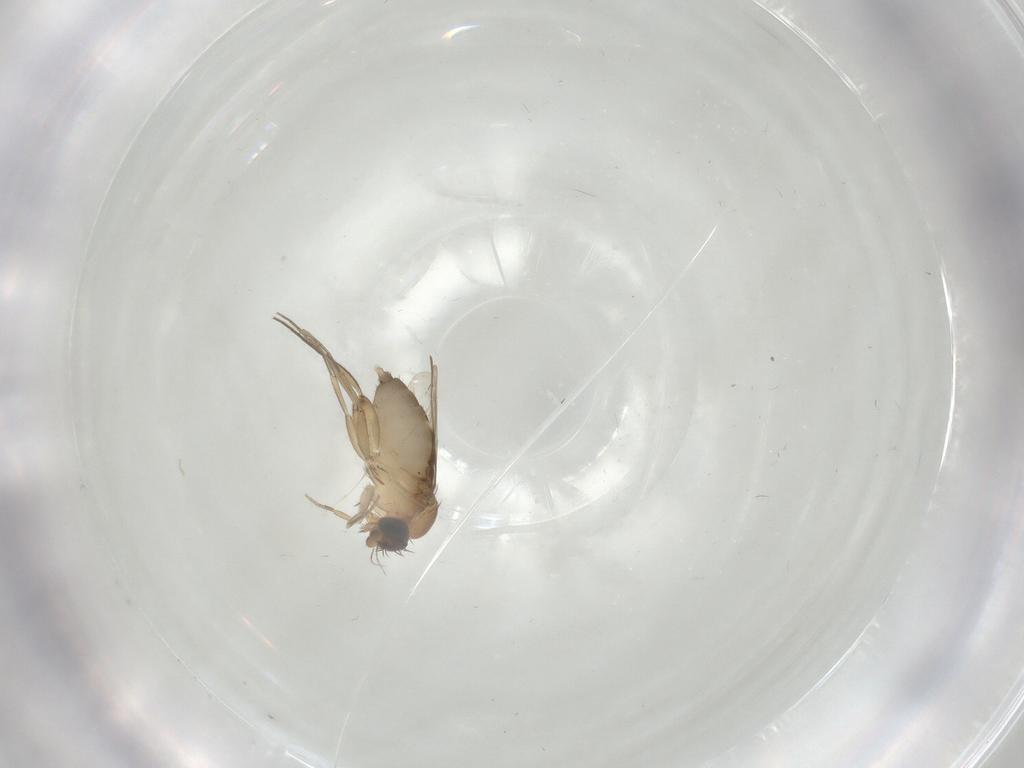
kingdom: Animalia
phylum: Arthropoda
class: Insecta
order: Diptera
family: Phoridae
